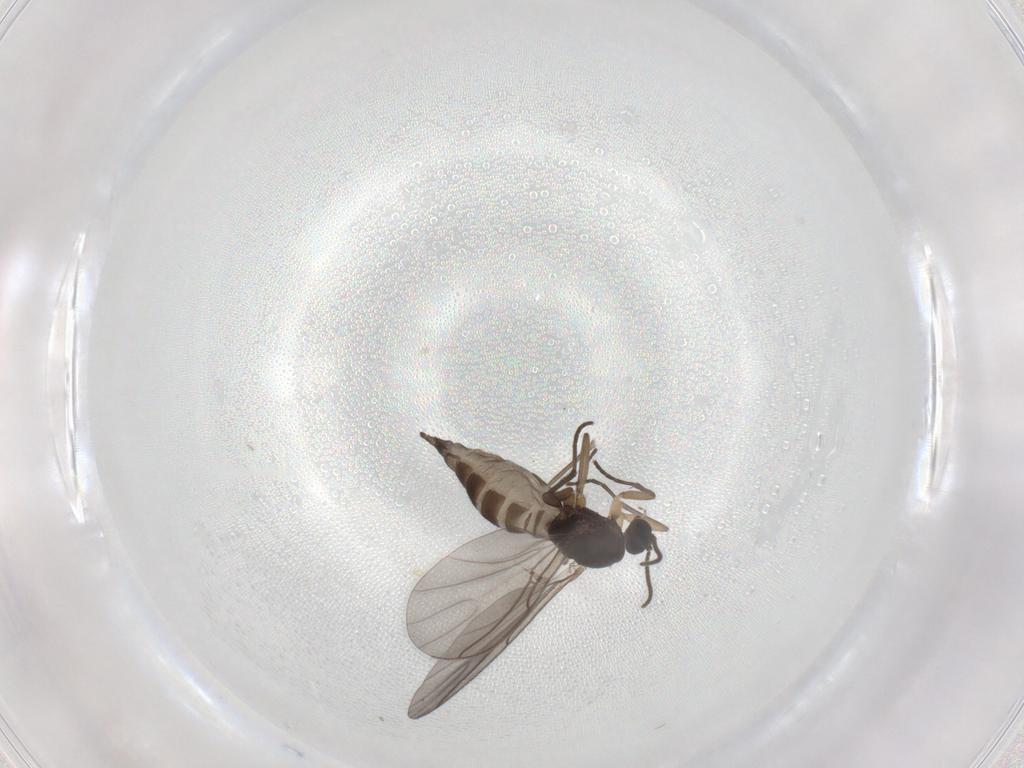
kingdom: Animalia
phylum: Arthropoda
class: Insecta
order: Diptera
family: Sciaridae
